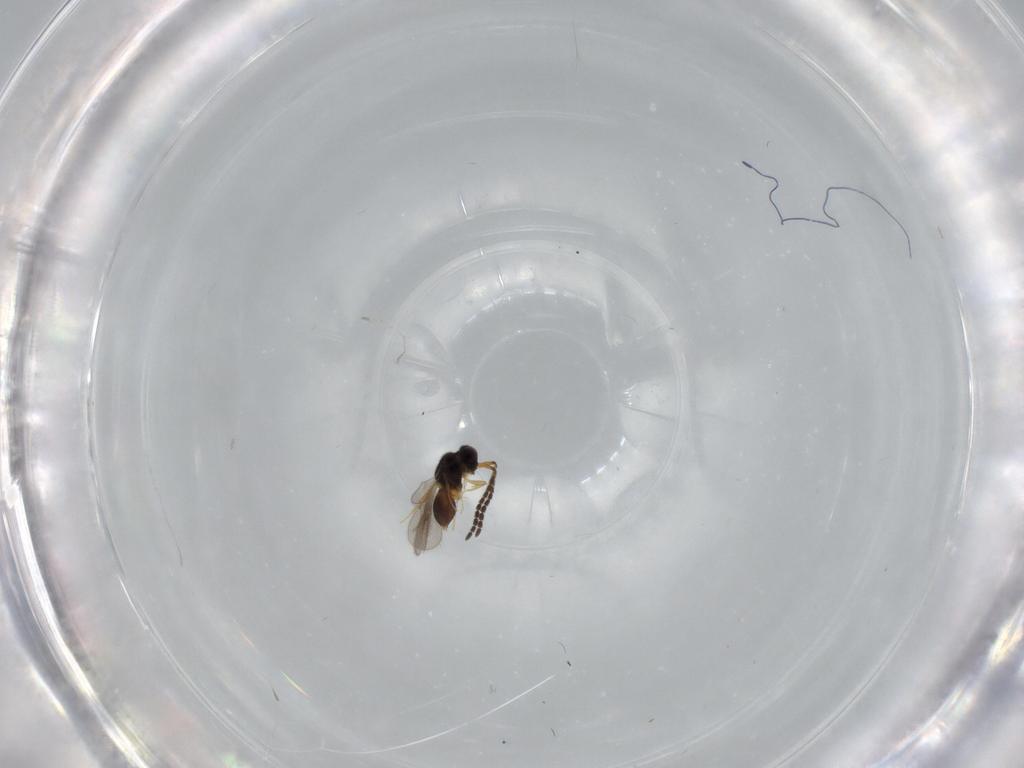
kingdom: Animalia
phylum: Arthropoda
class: Insecta
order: Hymenoptera
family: Ceraphronidae
